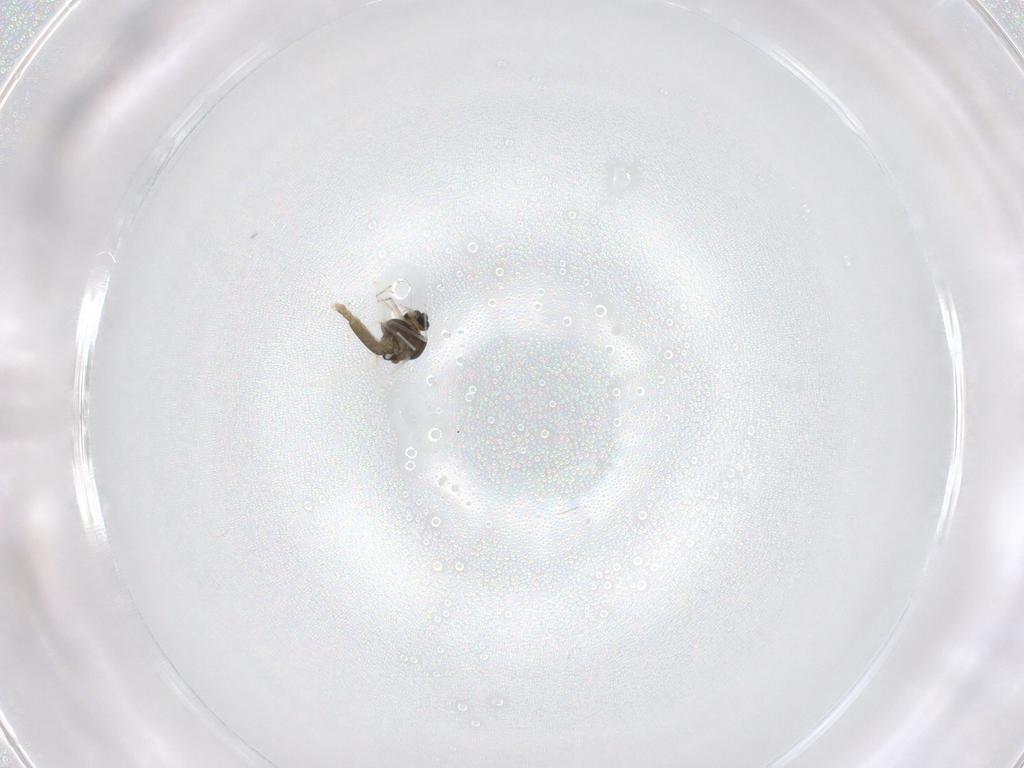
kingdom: Animalia
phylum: Arthropoda
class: Insecta
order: Diptera
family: Chironomidae
